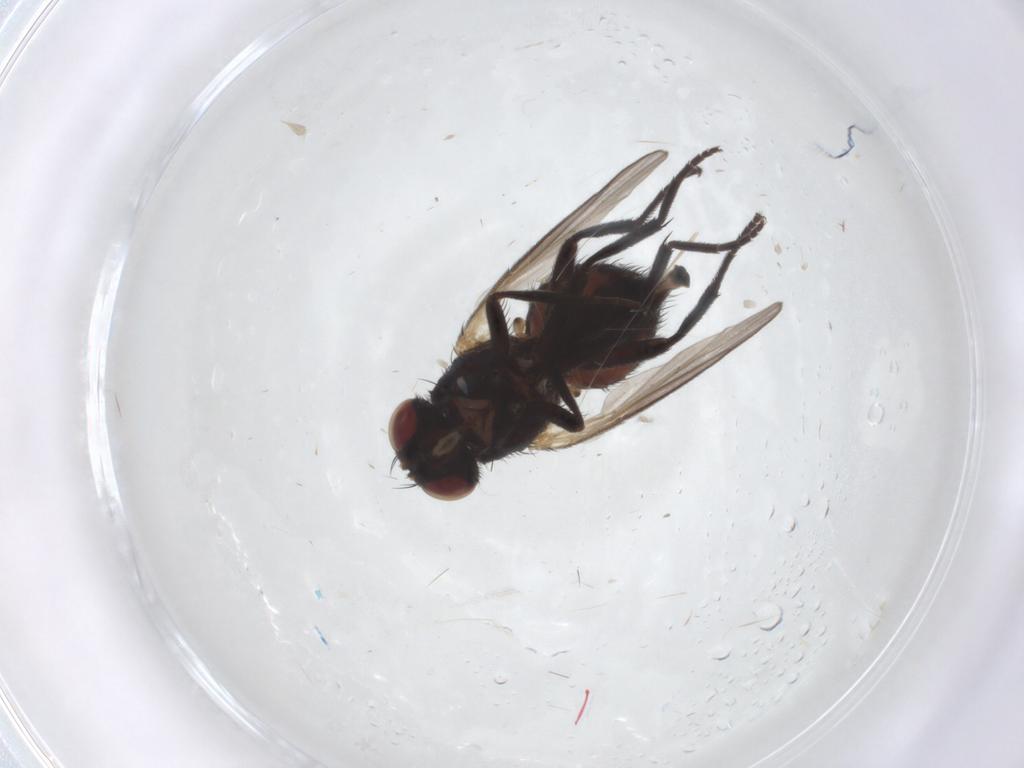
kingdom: Animalia
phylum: Arthropoda
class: Insecta
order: Diptera
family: Agromyzidae
